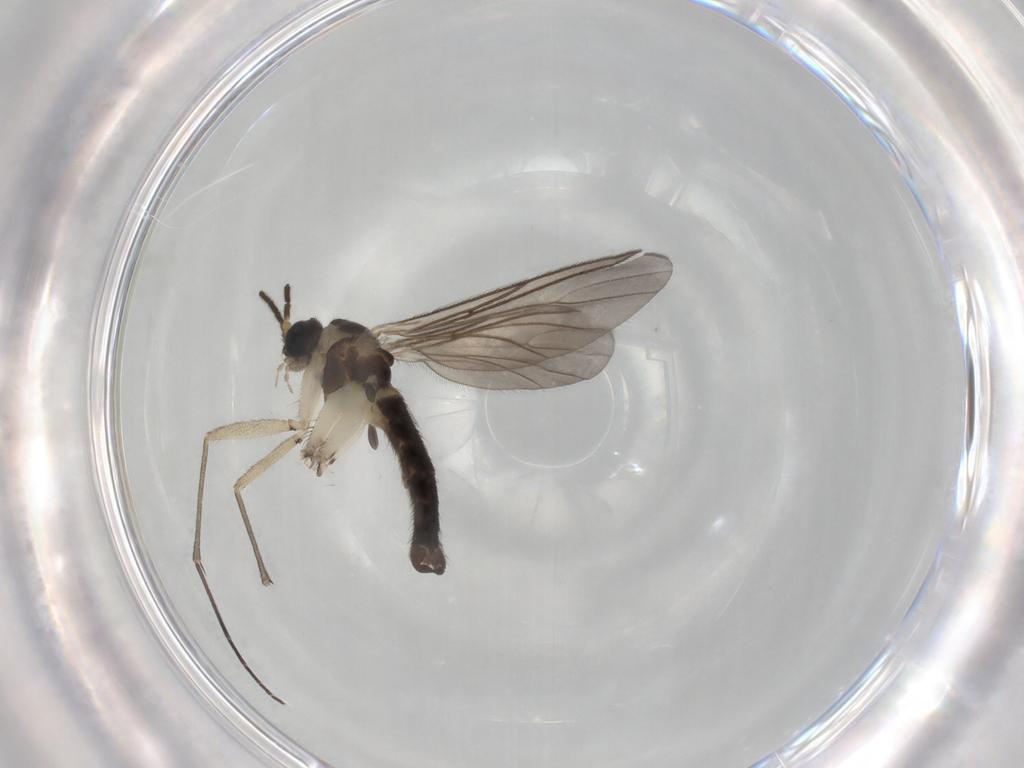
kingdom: Animalia
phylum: Arthropoda
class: Insecta
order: Diptera
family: Sciaridae
